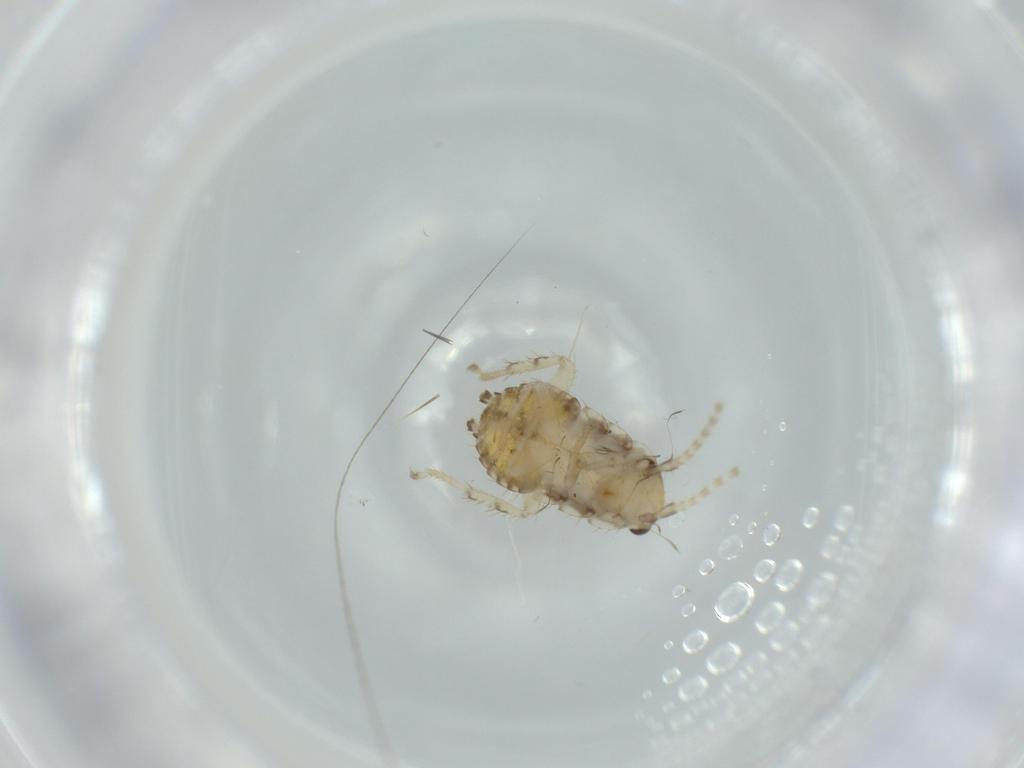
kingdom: Animalia
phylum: Arthropoda
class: Insecta
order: Blattodea
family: Ectobiidae
